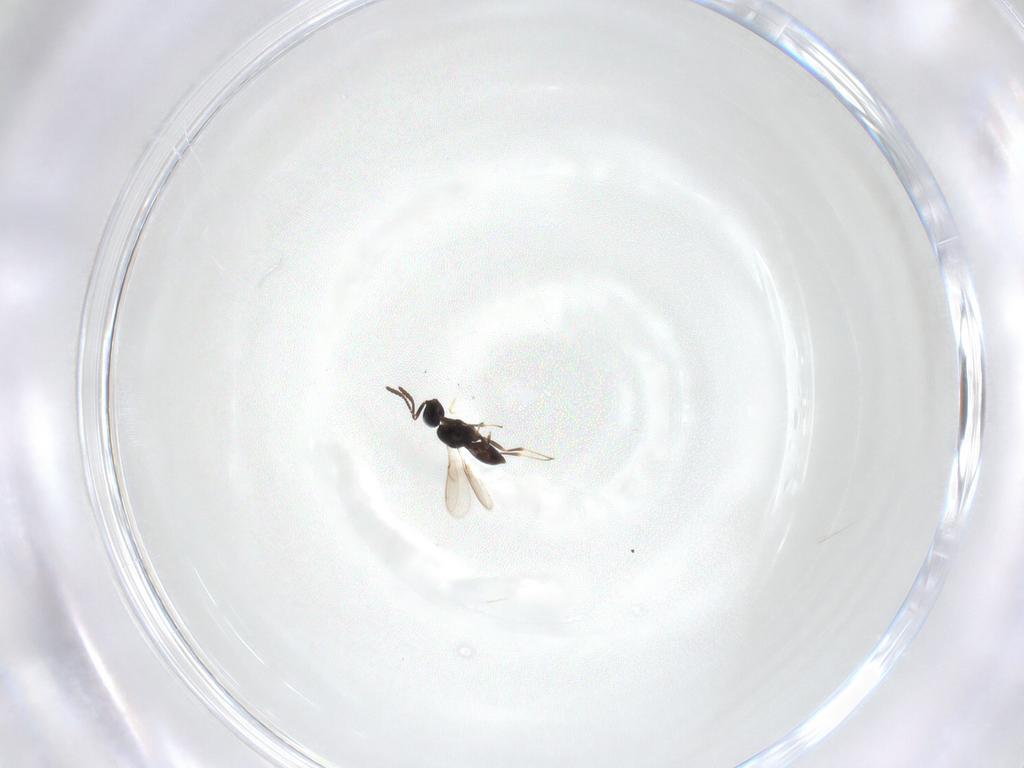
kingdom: Animalia
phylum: Arthropoda
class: Insecta
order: Hymenoptera
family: Scelionidae
